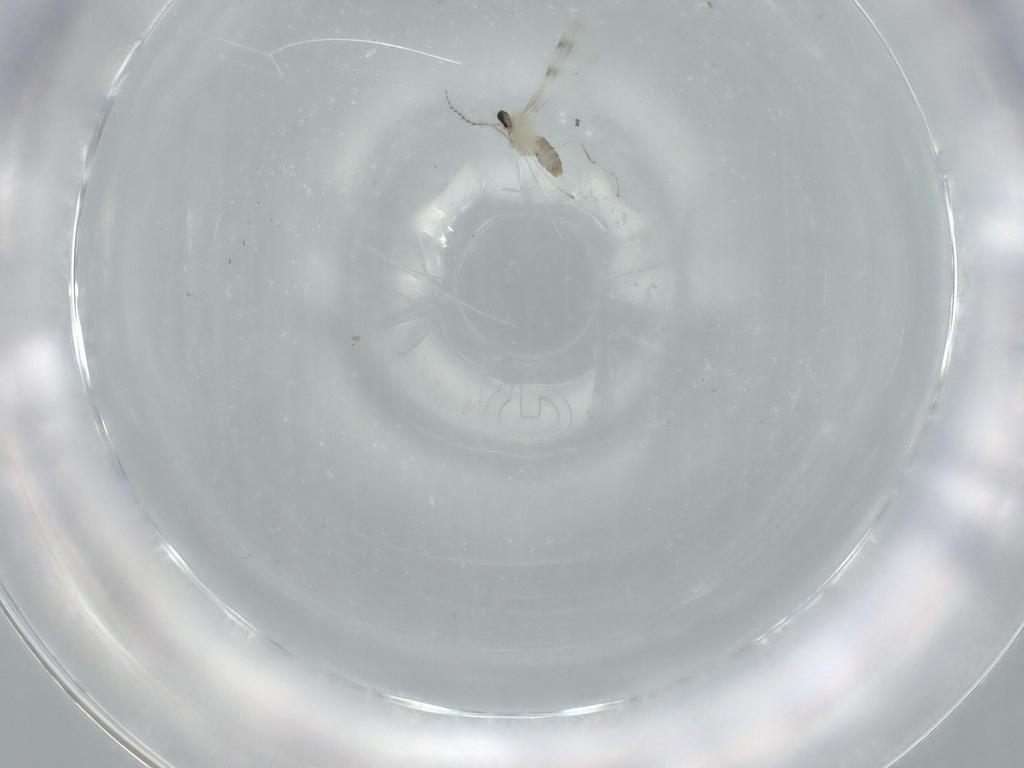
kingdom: Animalia
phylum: Arthropoda
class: Insecta
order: Diptera
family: Cecidomyiidae
